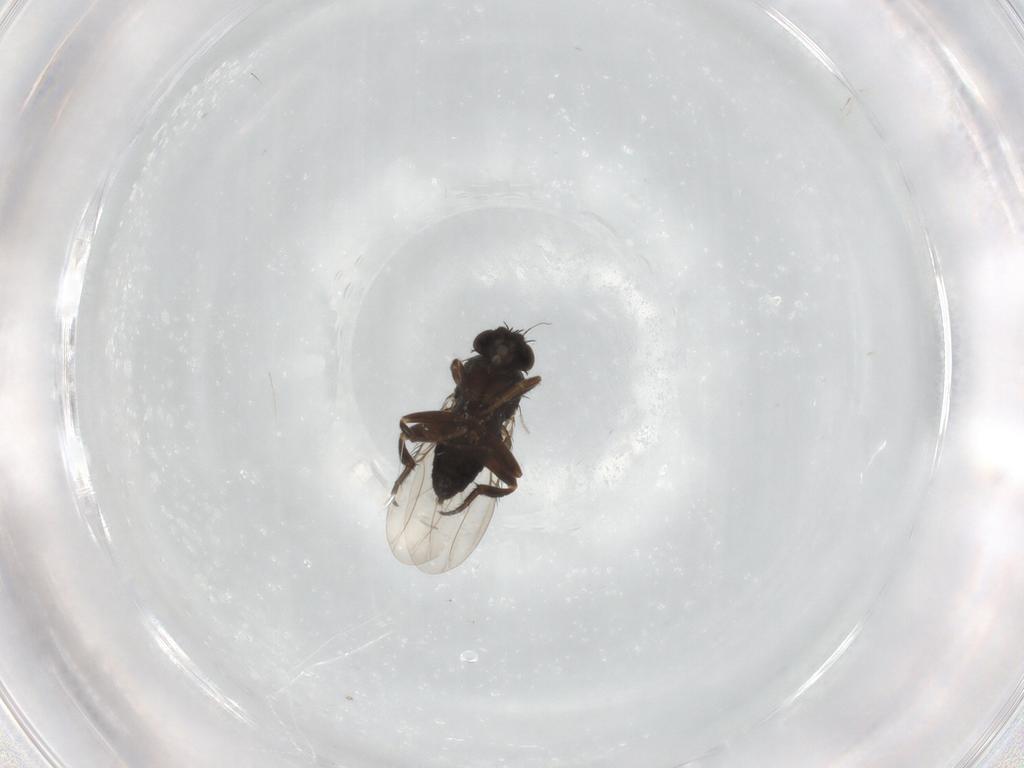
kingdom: Animalia
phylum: Arthropoda
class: Insecta
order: Diptera
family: Phoridae
